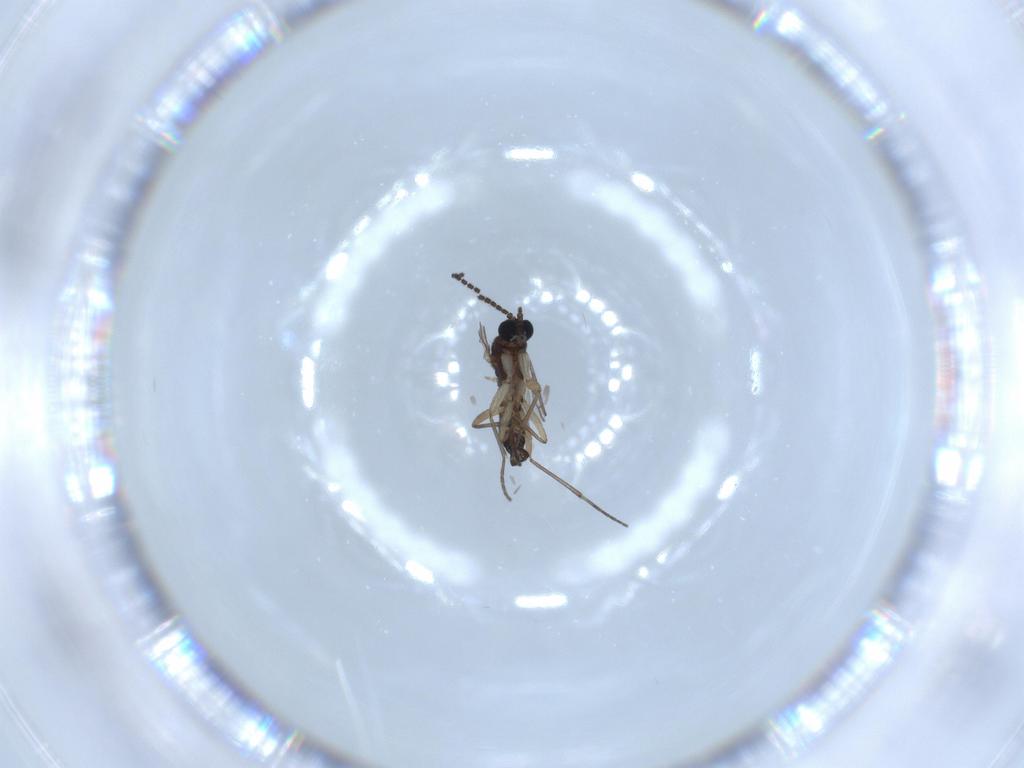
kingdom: Animalia
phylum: Arthropoda
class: Insecta
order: Diptera
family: Sciaridae
